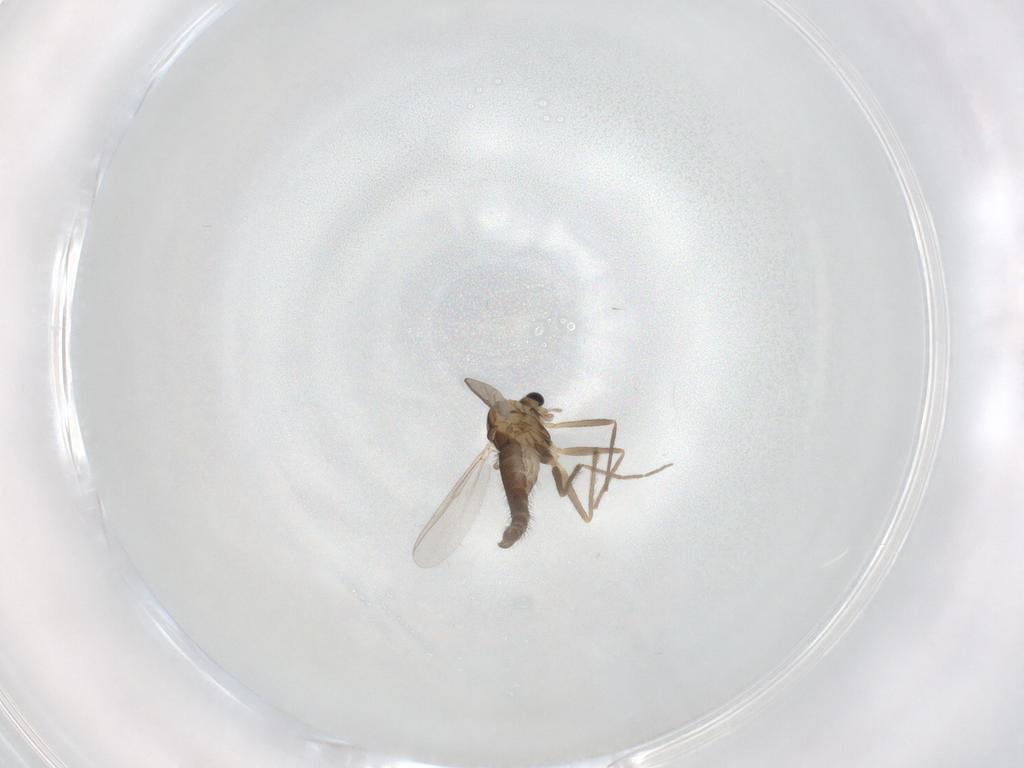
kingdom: Animalia
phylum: Arthropoda
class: Insecta
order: Diptera
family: Chironomidae
